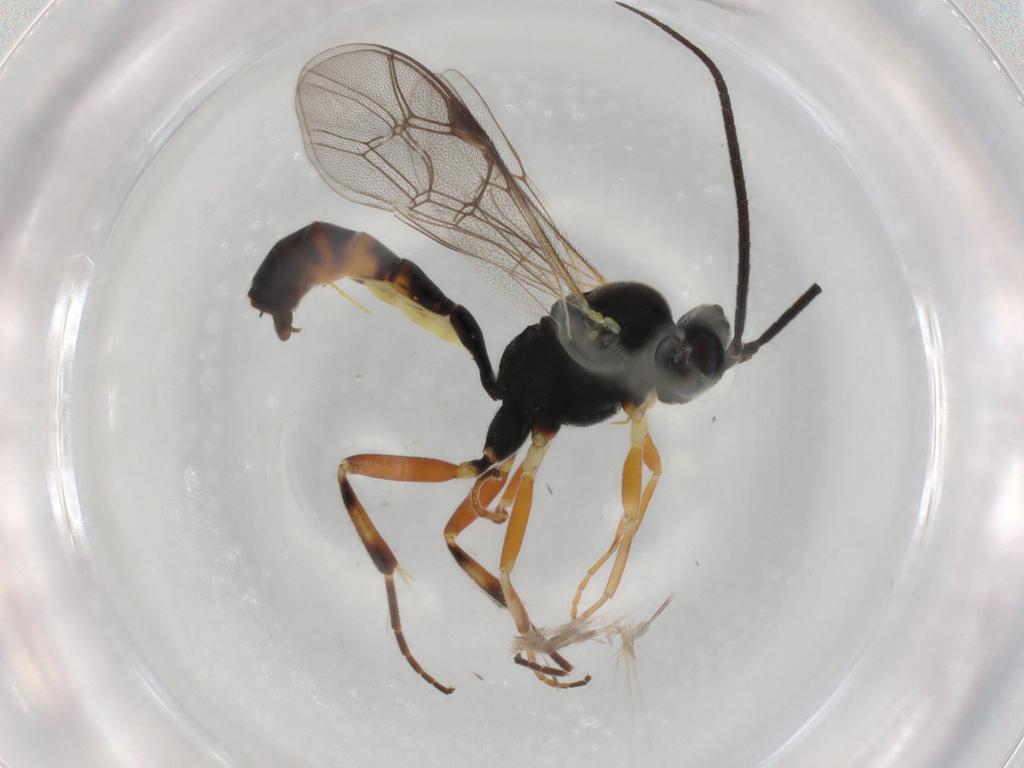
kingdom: Animalia
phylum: Arthropoda
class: Insecta
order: Hymenoptera
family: Ichneumonidae
